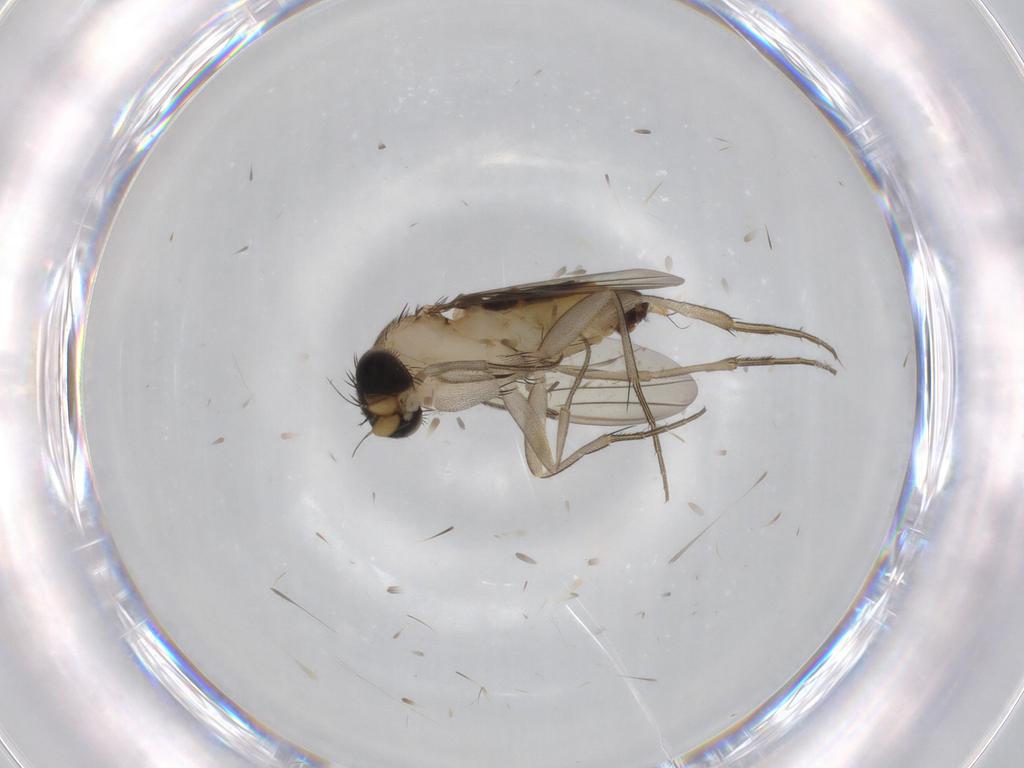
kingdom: Animalia
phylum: Arthropoda
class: Insecta
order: Diptera
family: Phoridae
